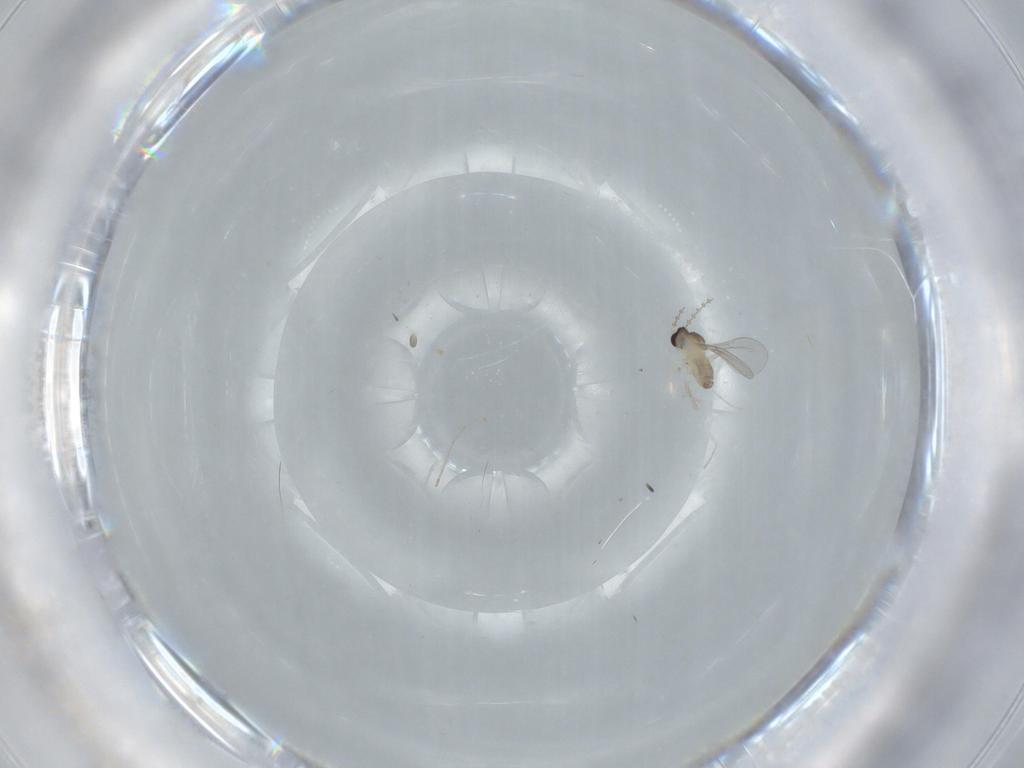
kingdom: Animalia
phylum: Arthropoda
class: Insecta
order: Diptera
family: Cecidomyiidae
